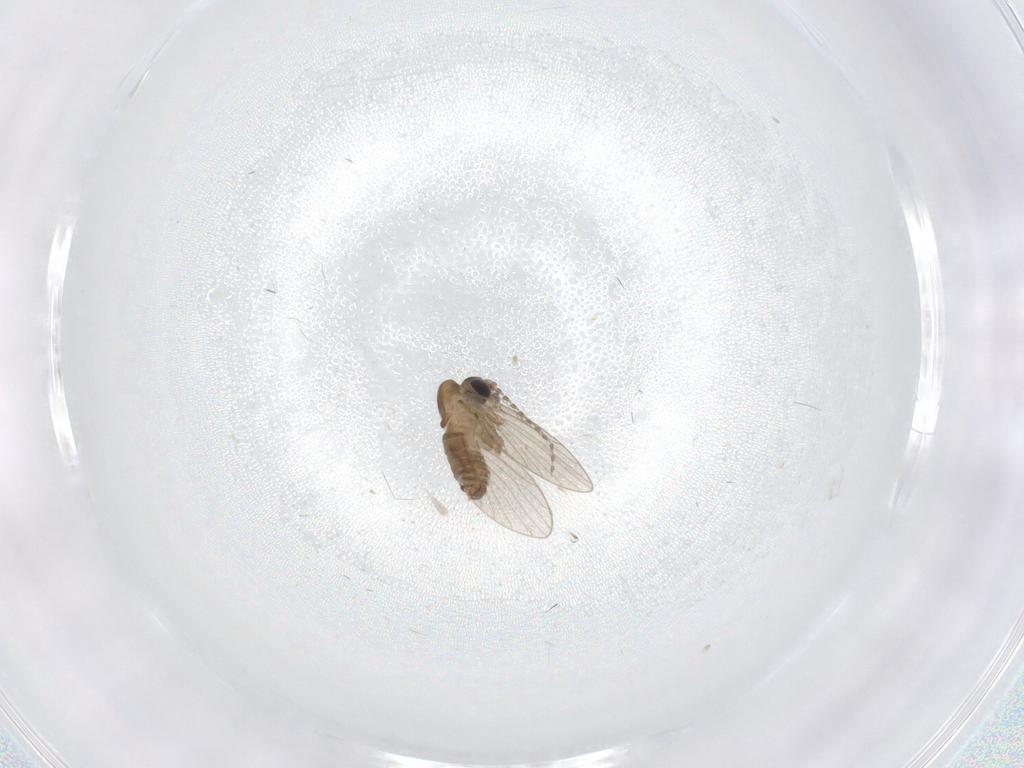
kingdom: Animalia
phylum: Arthropoda
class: Insecta
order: Diptera
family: Psychodidae
